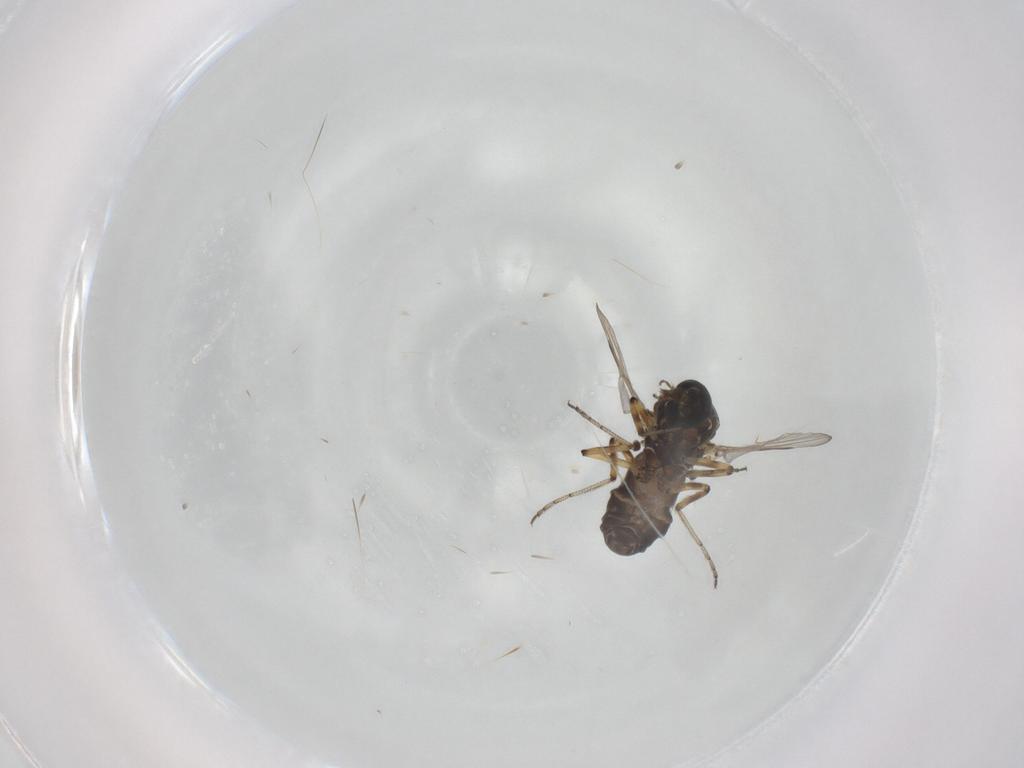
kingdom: Animalia
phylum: Arthropoda
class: Insecta
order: Diptera
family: Ceratopogonidae
